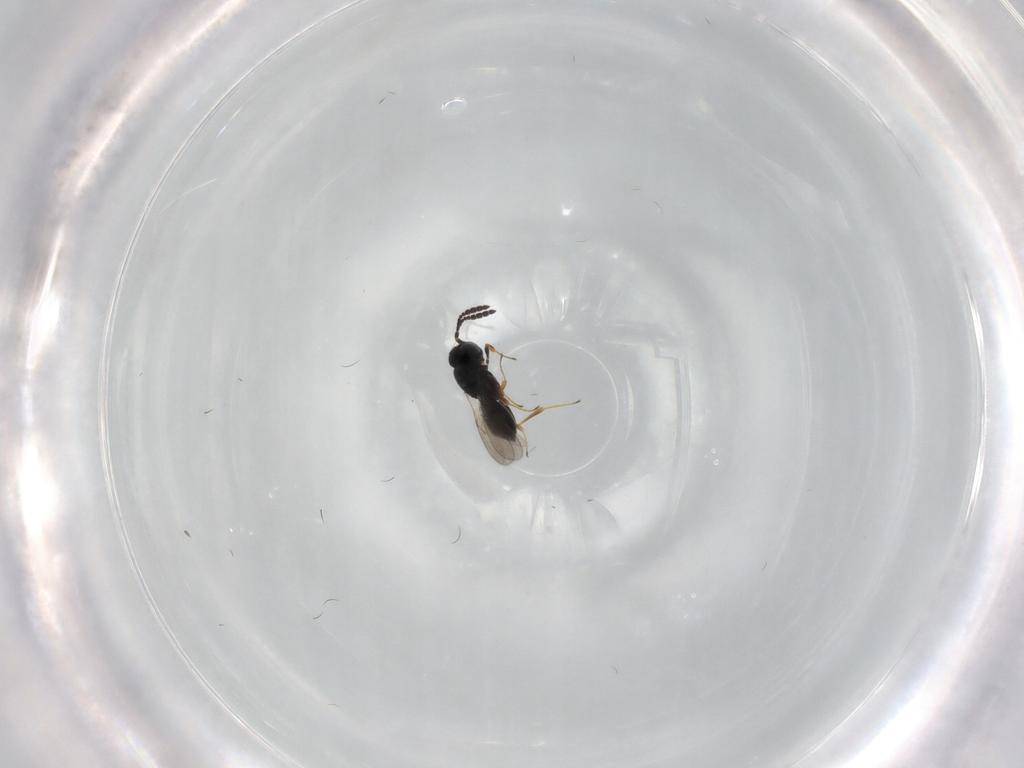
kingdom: Animalia
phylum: Arthropoda
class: Insecta
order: Hymenoptera
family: Scelionidae
